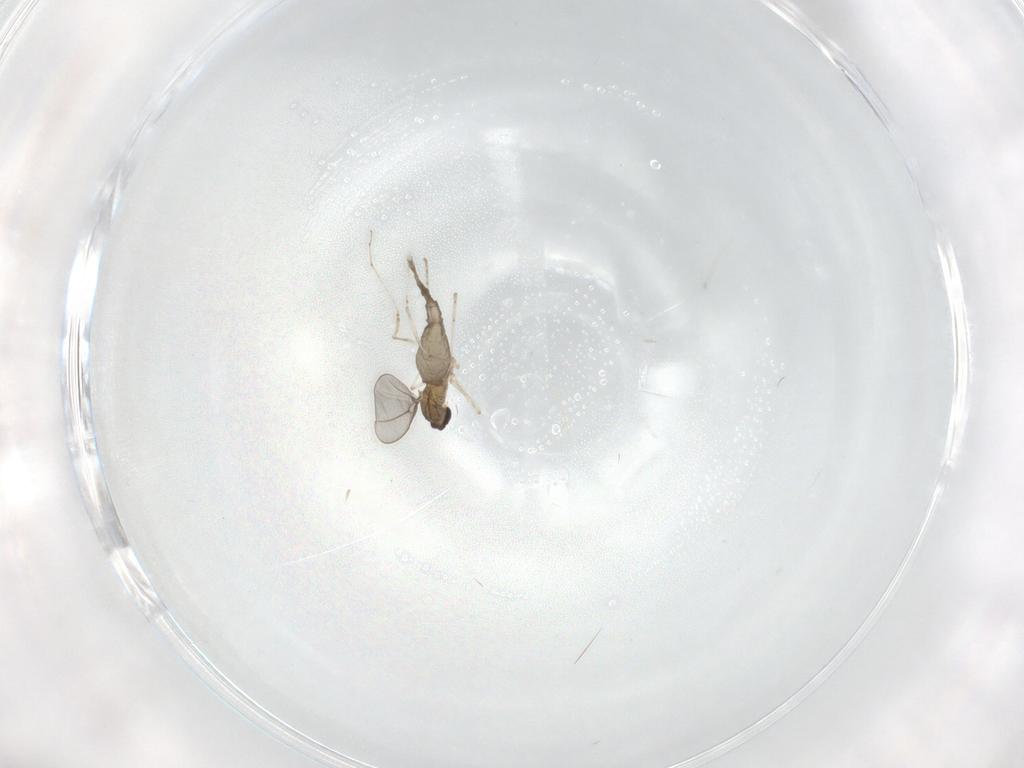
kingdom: Animalia
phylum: Arthropoda
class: Insecta
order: Diptera
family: Cecidomyiidae
